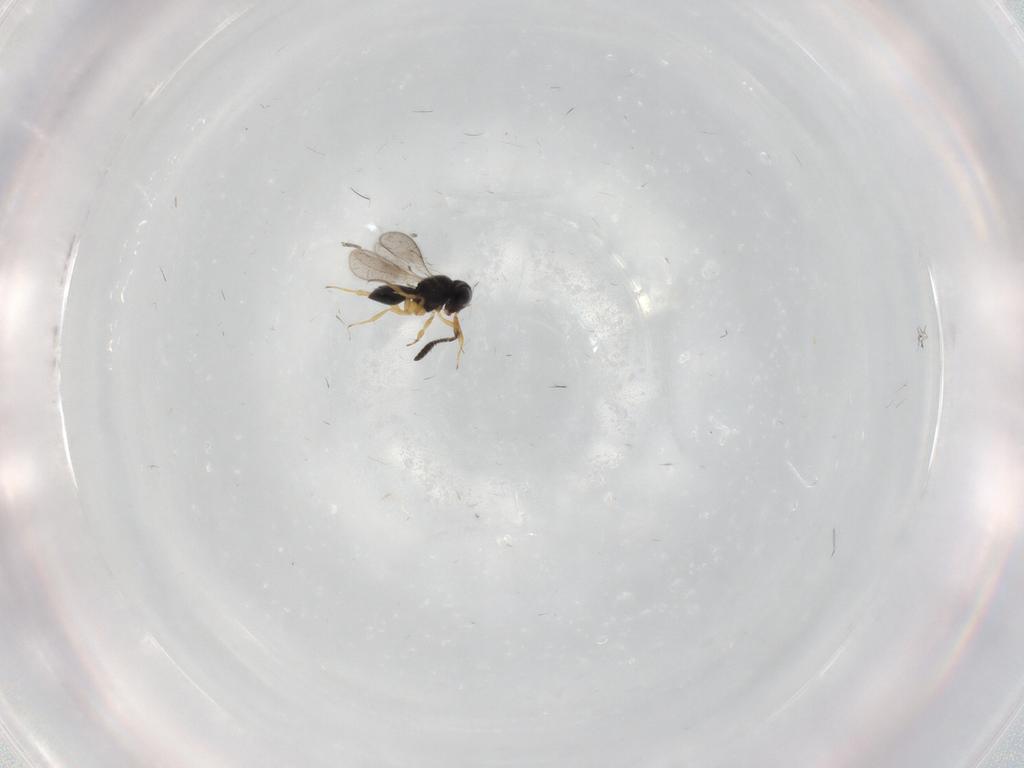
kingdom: Animalia
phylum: Arthropoda
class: Insecta
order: Hymenoptera
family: Scelionidae
